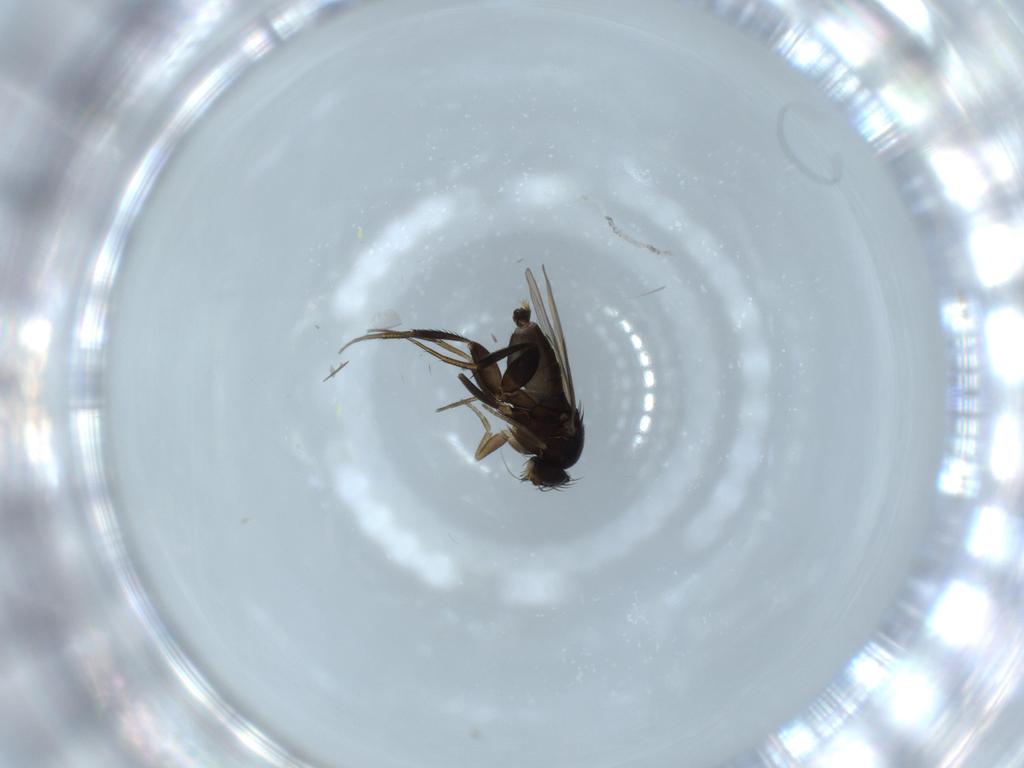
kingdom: Animalia
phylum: Arthropoda
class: Insecta
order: Diptera
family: Phoridae
